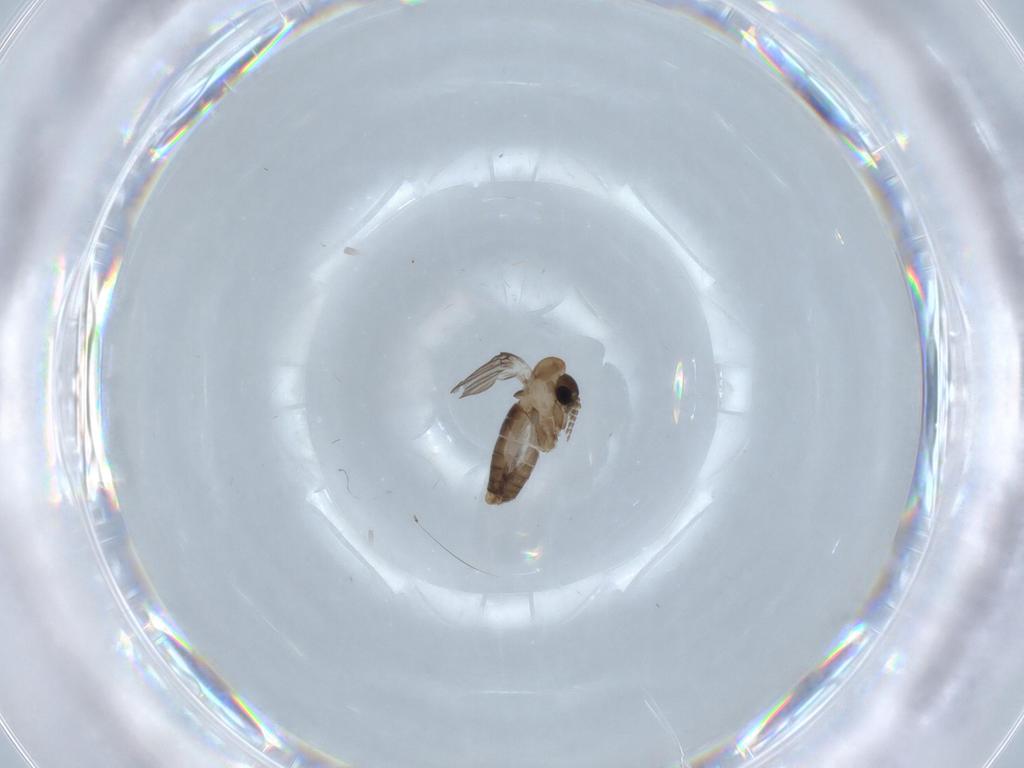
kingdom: Animalia
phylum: Arthropoda
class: Insecta
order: Diptera
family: Psychodidae
